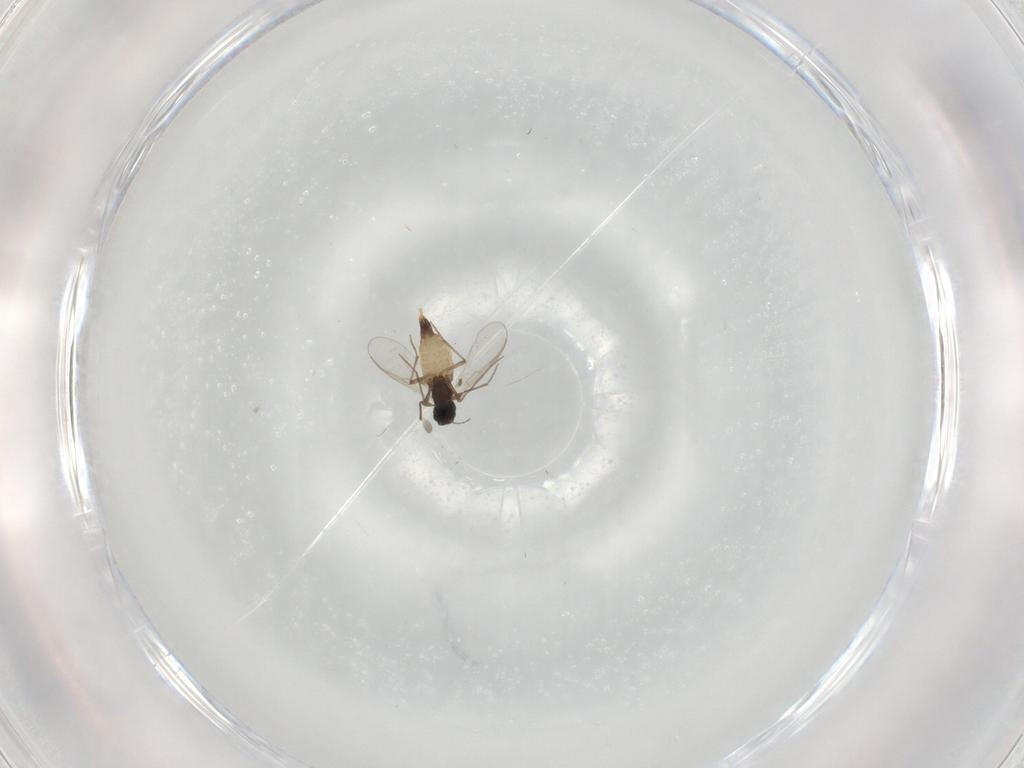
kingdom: Animalia
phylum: Arthropoda
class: Insecta
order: Diptera
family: Chironomidae
